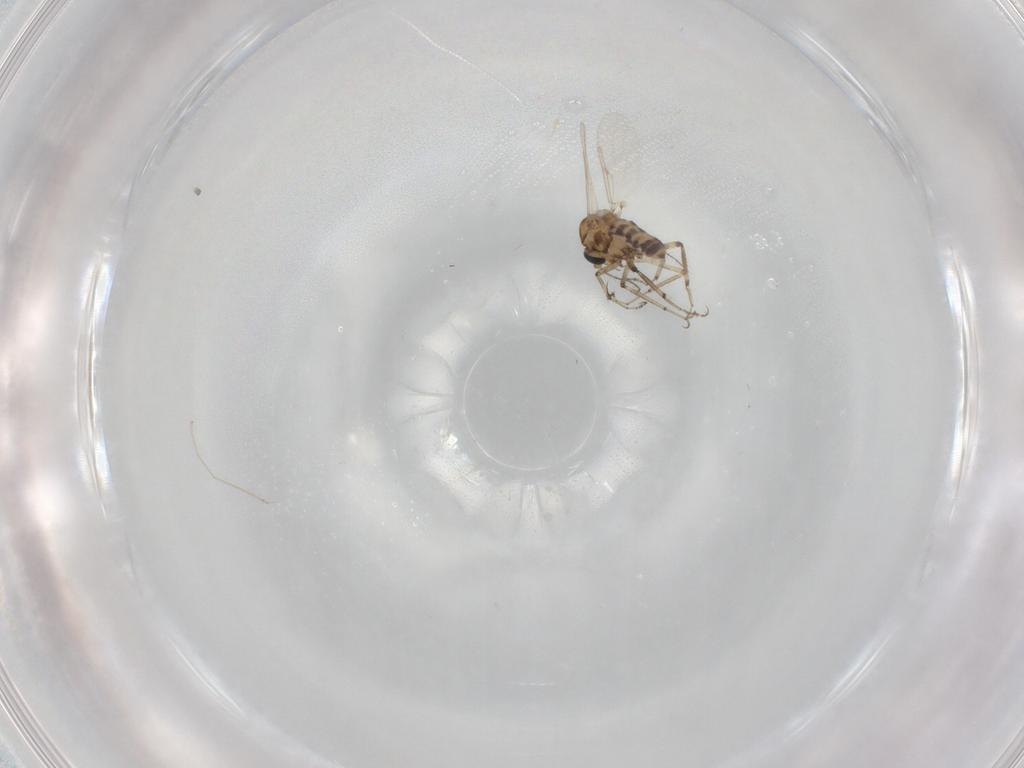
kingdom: Animalia
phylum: Arthropoda
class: Insecta
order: Diptera
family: Ceratopogonidae
